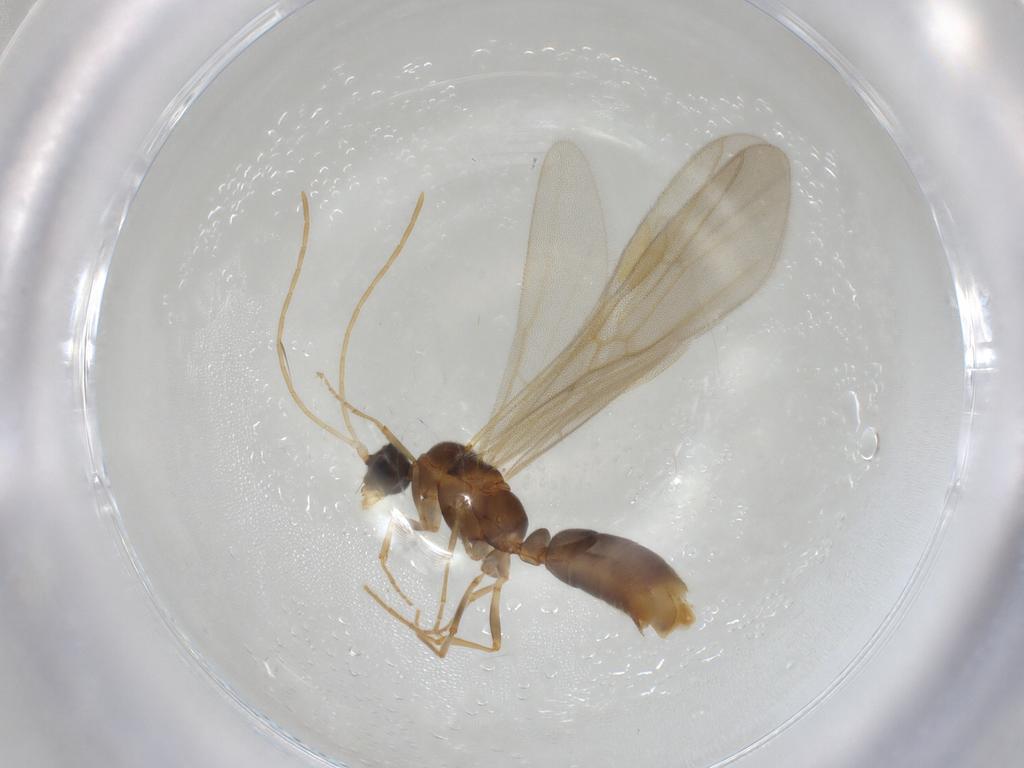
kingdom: Animalia
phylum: Arthropoda
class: Insecta
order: Hymenoptera
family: Formicidae
